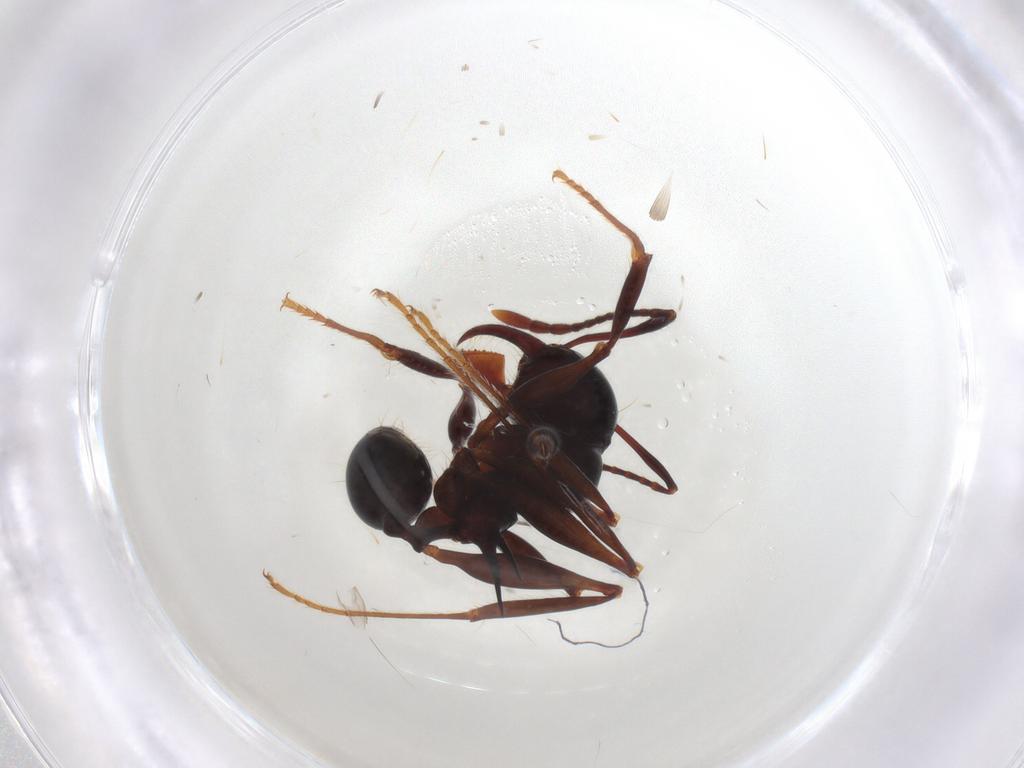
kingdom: Animalia
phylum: Arthropoda
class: Insecta
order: Hymenoptera
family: Formicidae
